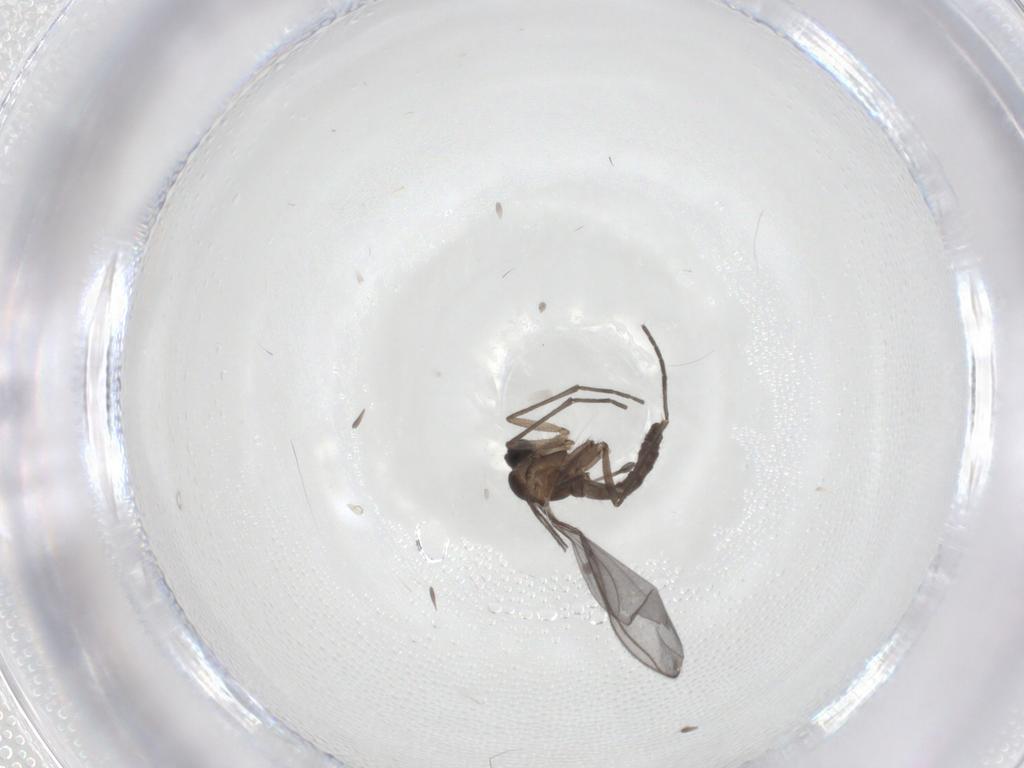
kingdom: Animalia
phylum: Arthropoda
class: Insecta
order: Diptera
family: Sciaridae
